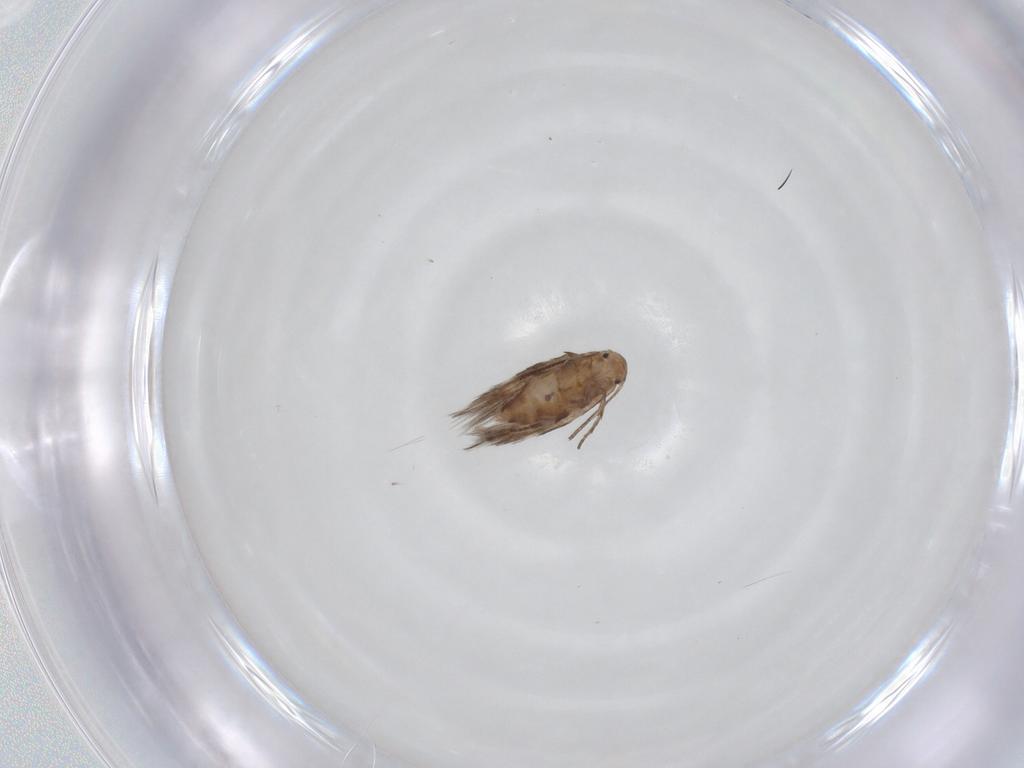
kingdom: Animalia
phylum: Arthropoda
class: Insecta
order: Lepidoptera
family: Lyonetiidae
